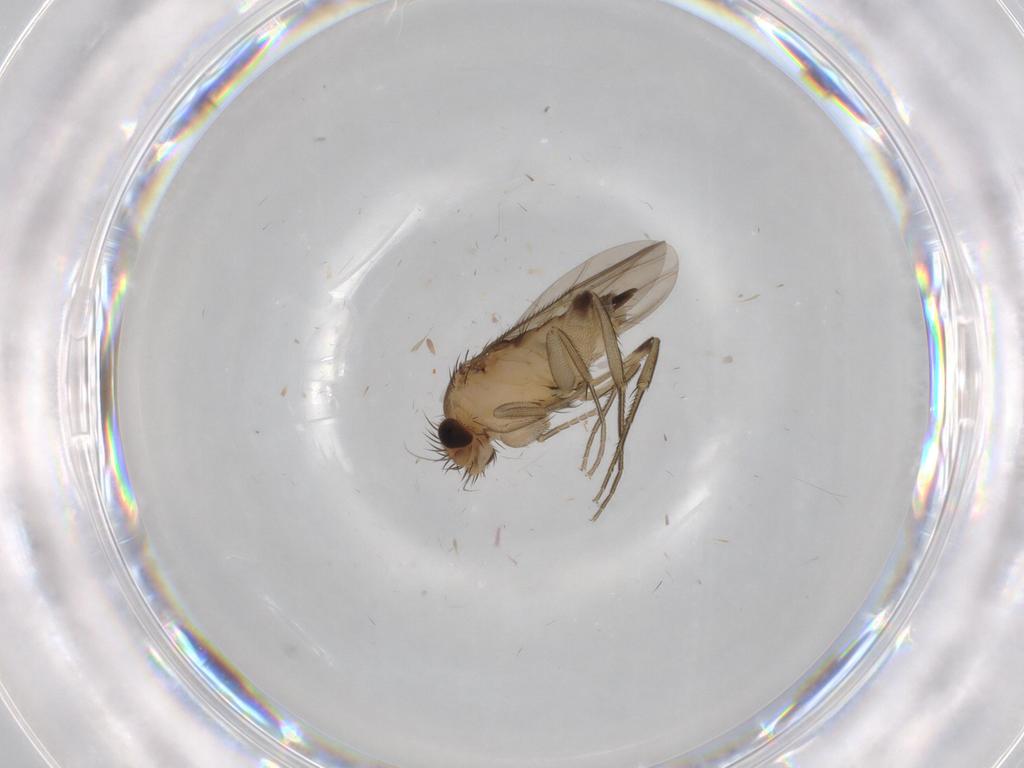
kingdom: Animalia
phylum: Arthropoda
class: Insecta
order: Diptera
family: Phoridae
